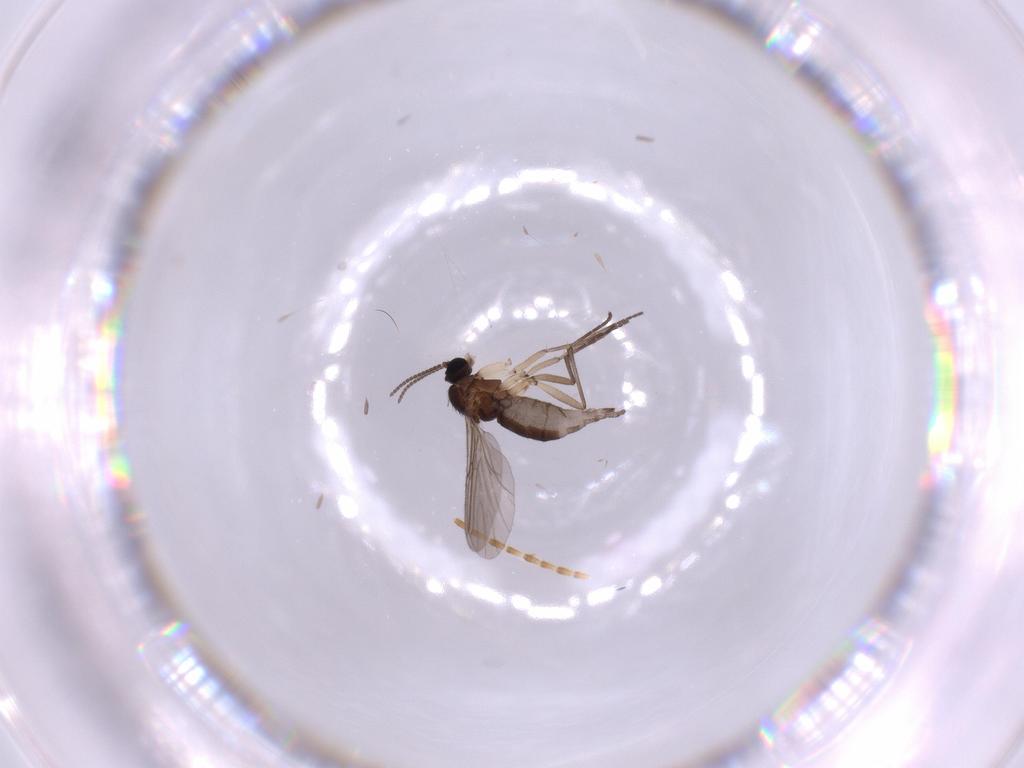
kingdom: Animalia
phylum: Arthropoda
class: Insecta
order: Diptera
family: Sciaridae
